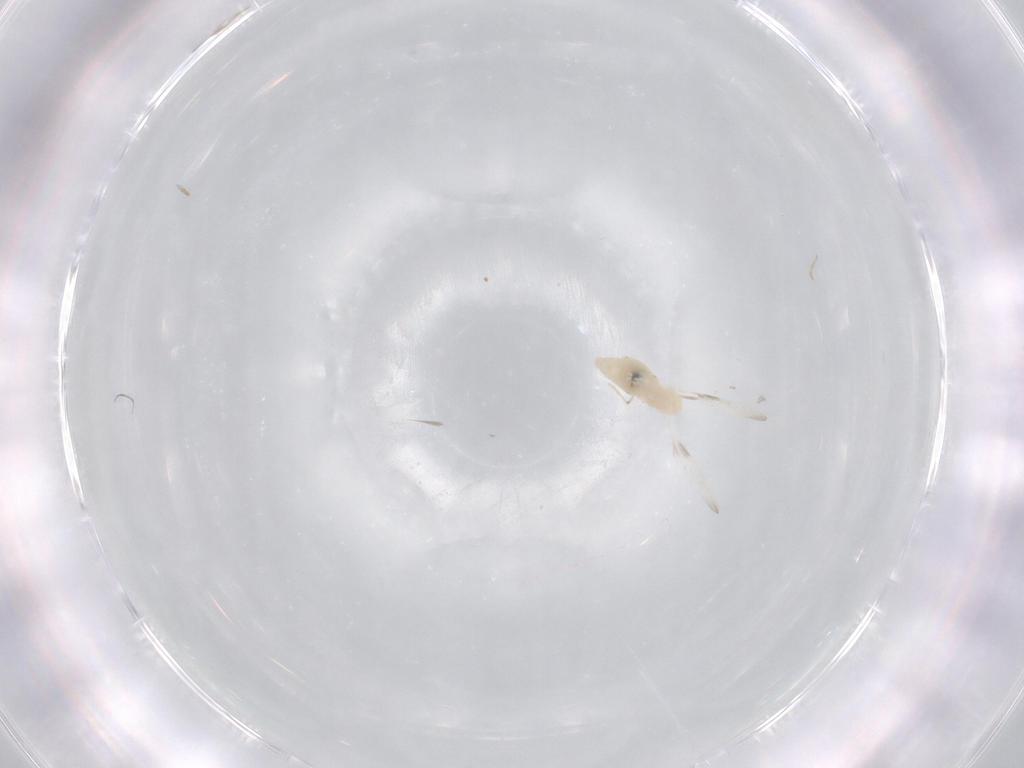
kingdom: Animalia
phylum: Arthropoda
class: Insecta
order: Diptera
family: Cecidomyiidae
